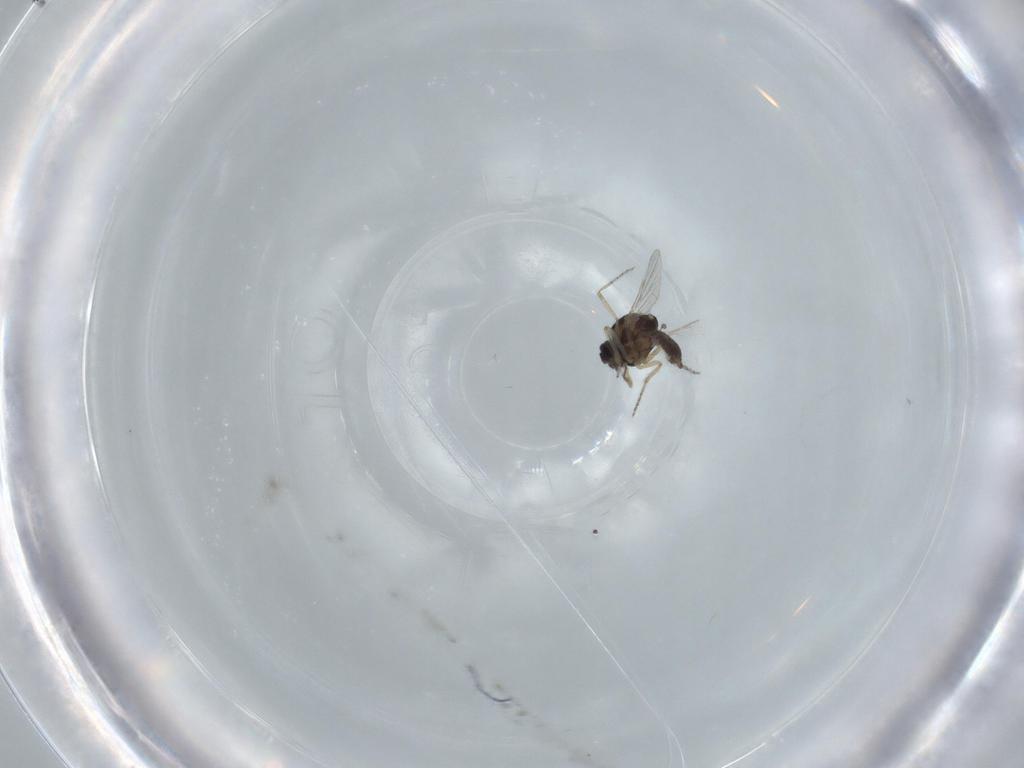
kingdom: Animalia
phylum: Arthropoda
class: Insecta
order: Diptera
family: Ceratopogonidae
